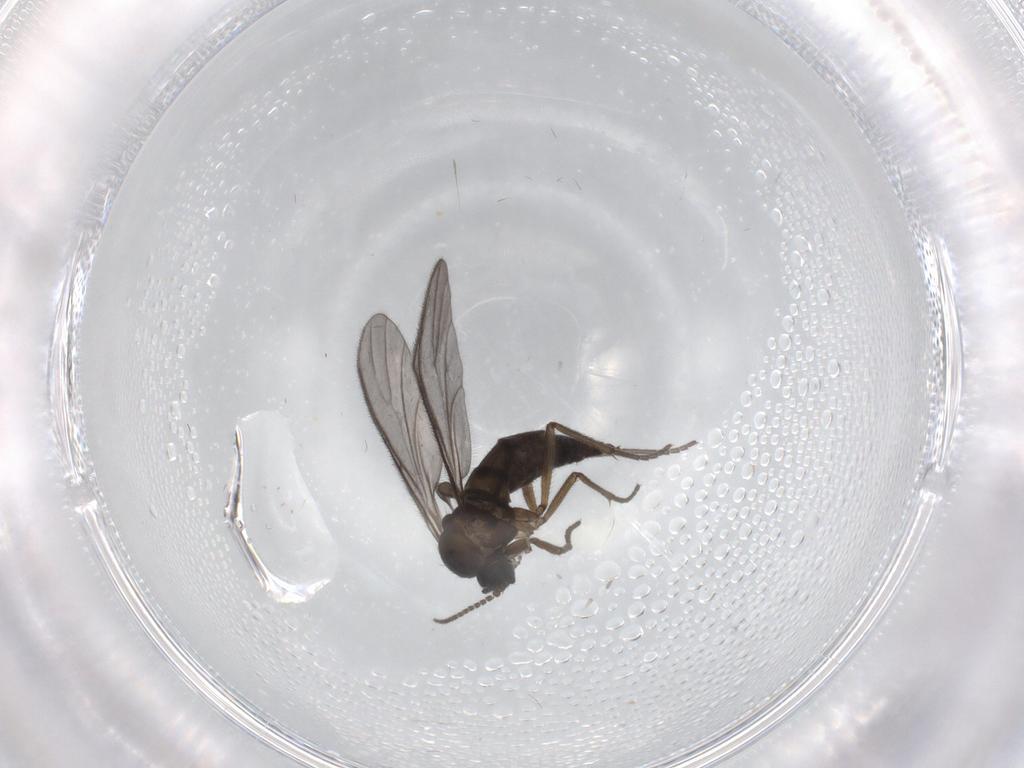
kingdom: Animalia
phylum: Arthropoda
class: Insecta
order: Diptera
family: Sciaridae
